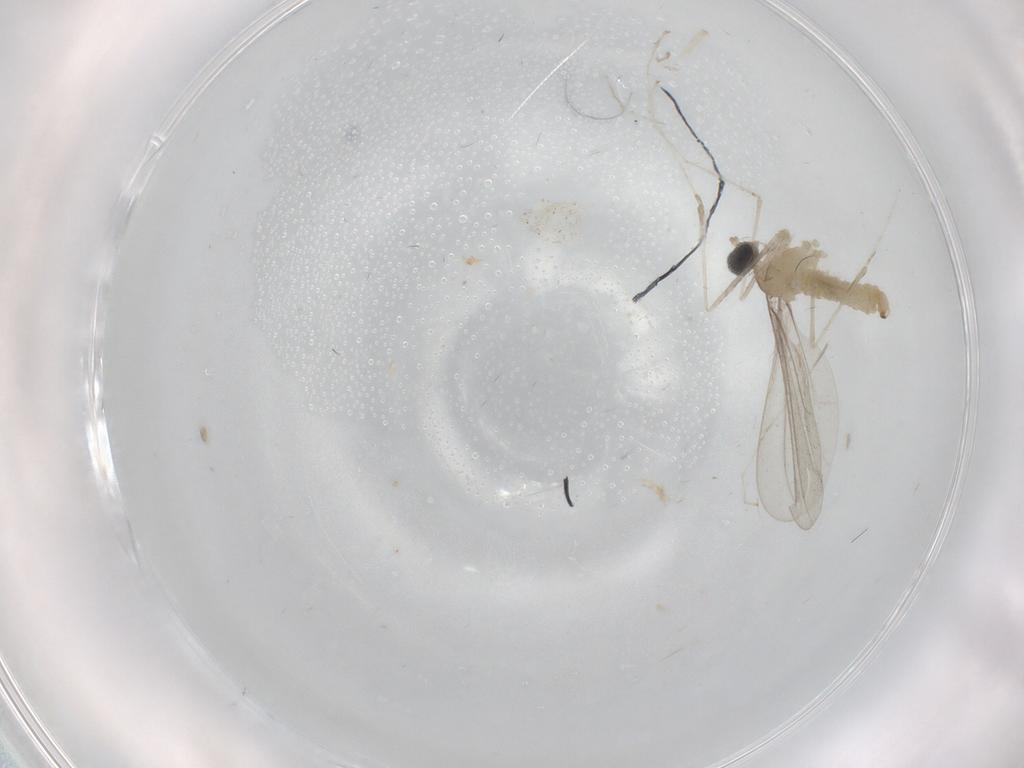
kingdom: Animalia
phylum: Arthropoda
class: Insecta
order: Diptera
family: Cecidomyiidae
